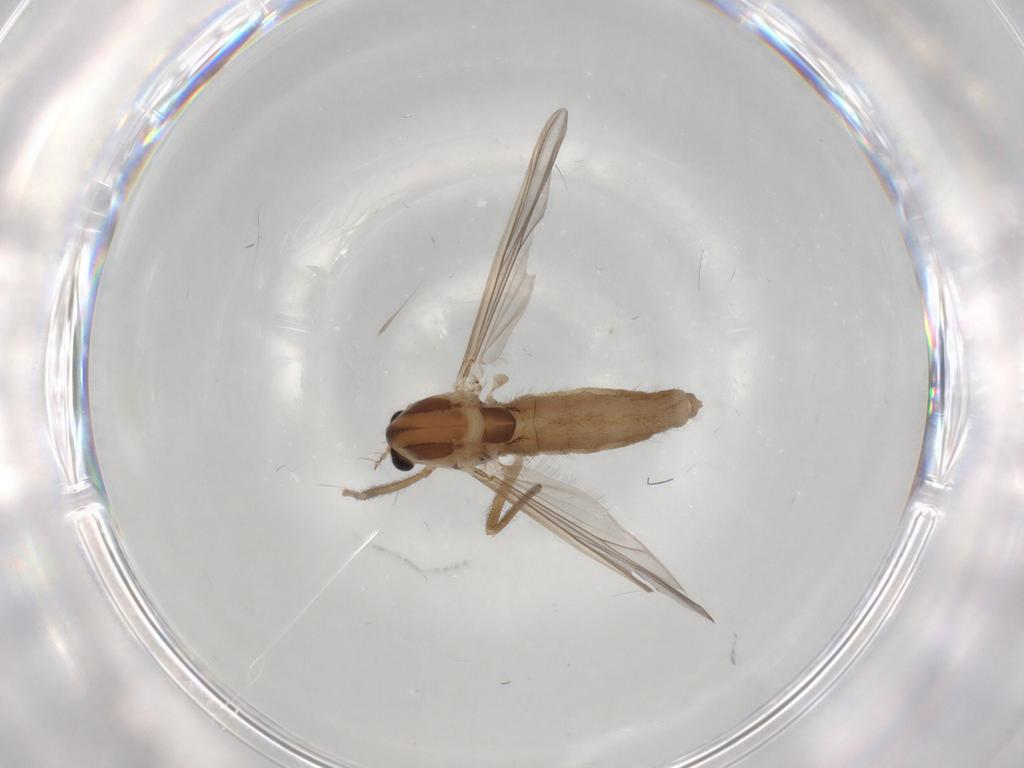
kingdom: Animalia
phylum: Arthropoda
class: Insecta
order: Diptera
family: Chironomidae
